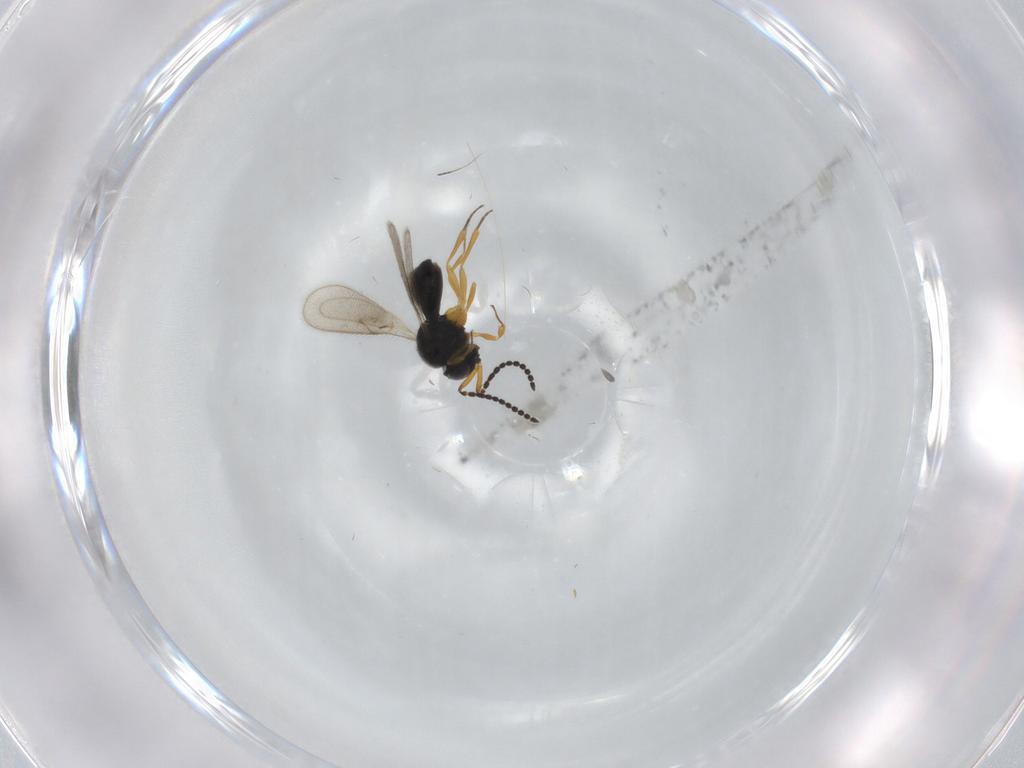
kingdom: Animalia
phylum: Arthropoda
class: Insecta
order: Hymenoptera
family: Scelionidae
